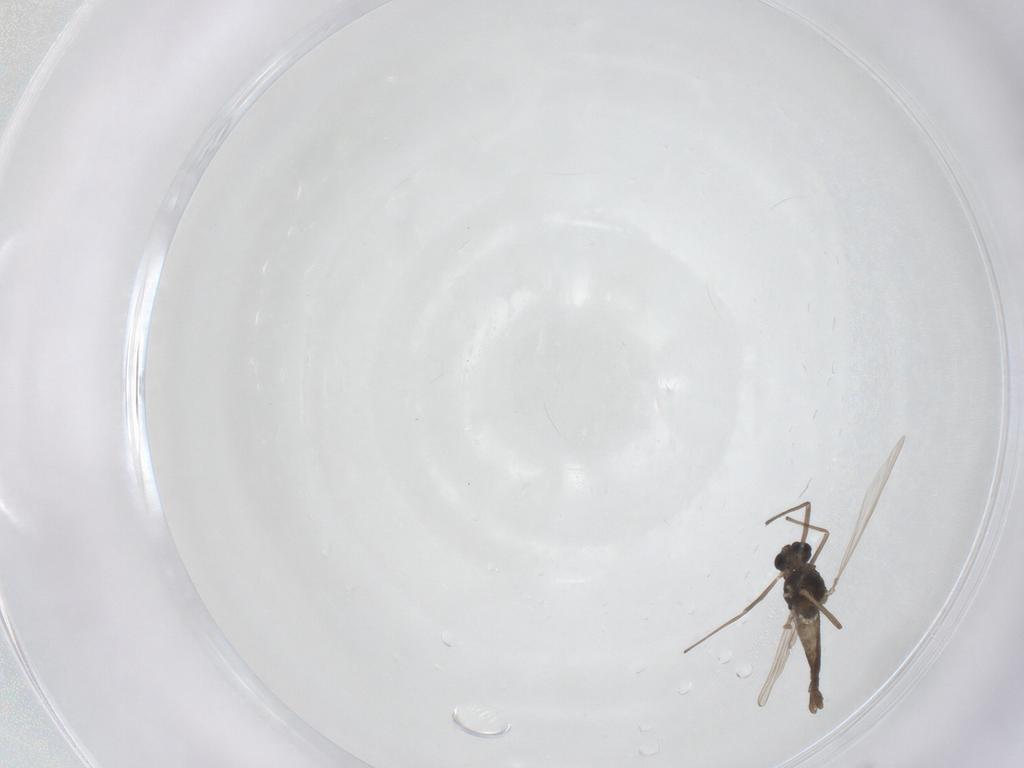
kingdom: Animalia
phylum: Arthropoda
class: Insecta
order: Diptera
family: Chironomidae
